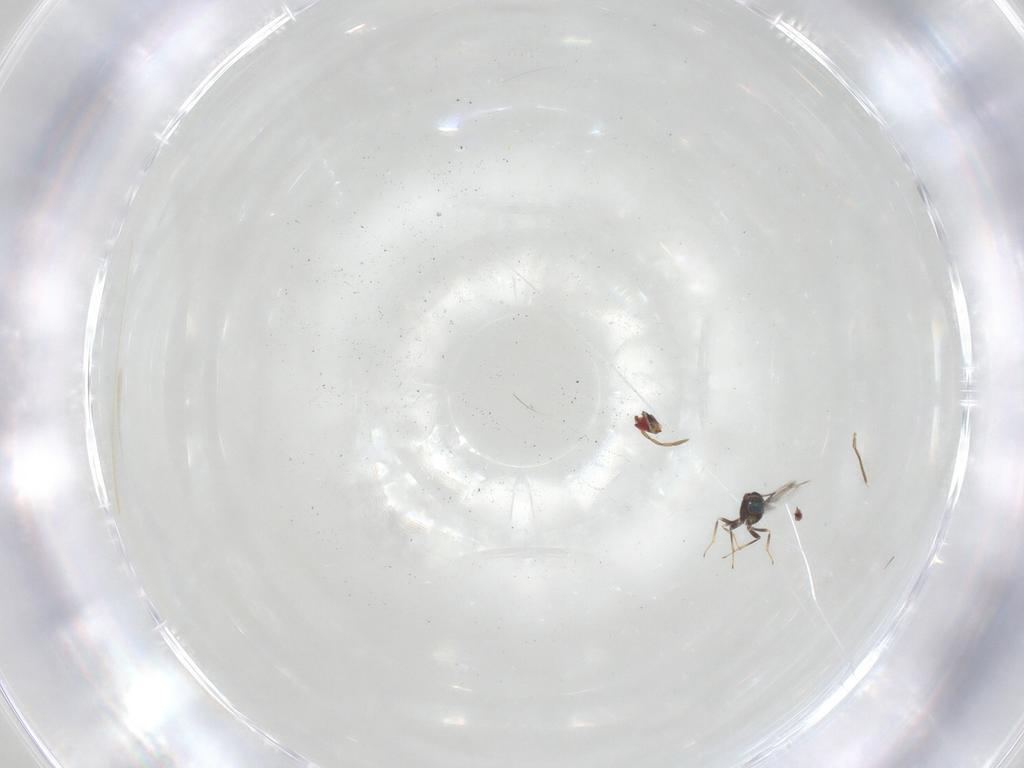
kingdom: Animalia
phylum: Arthropoda
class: Insecta
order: Hymenoptera
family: Azotidae
